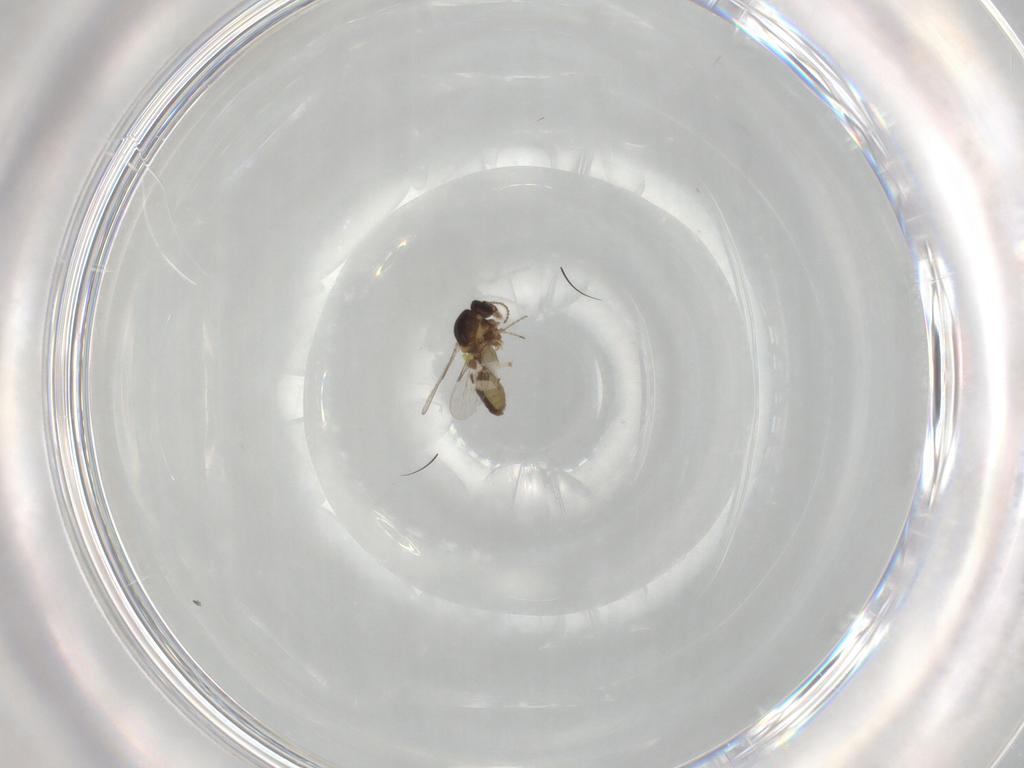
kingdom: Animalia
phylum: Arthropoda
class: Insecta
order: Diptera
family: Ceratopogonidae
